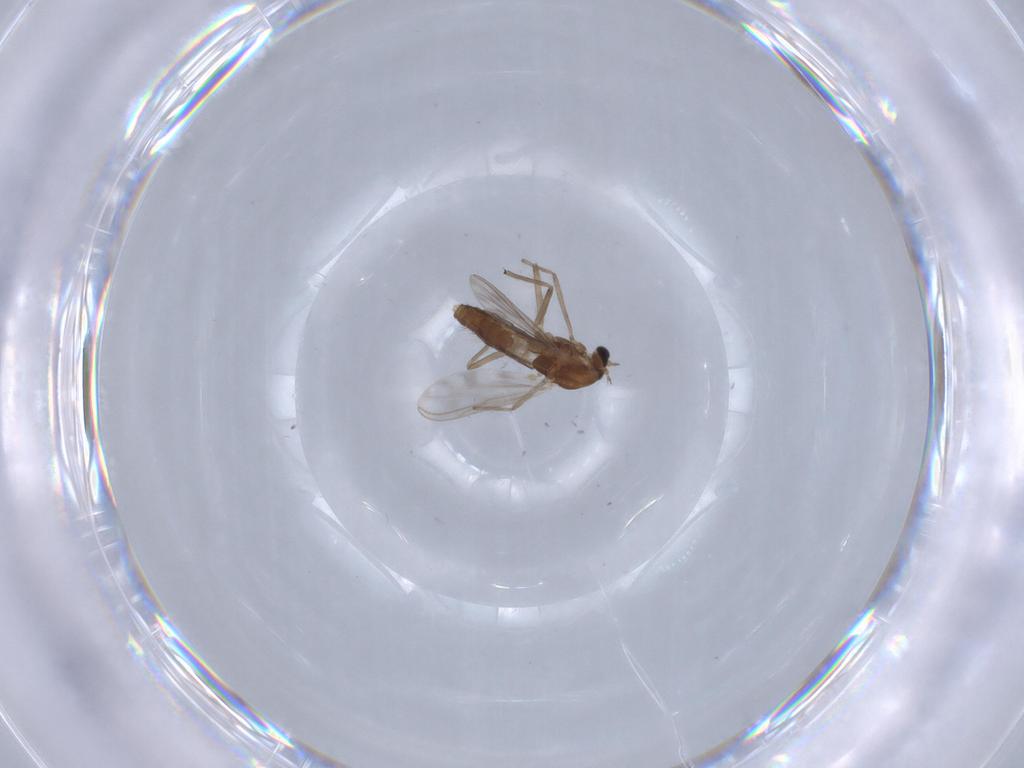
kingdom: Animalia
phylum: Arthropoda
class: Insecta
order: Diptera
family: Chironomidae
